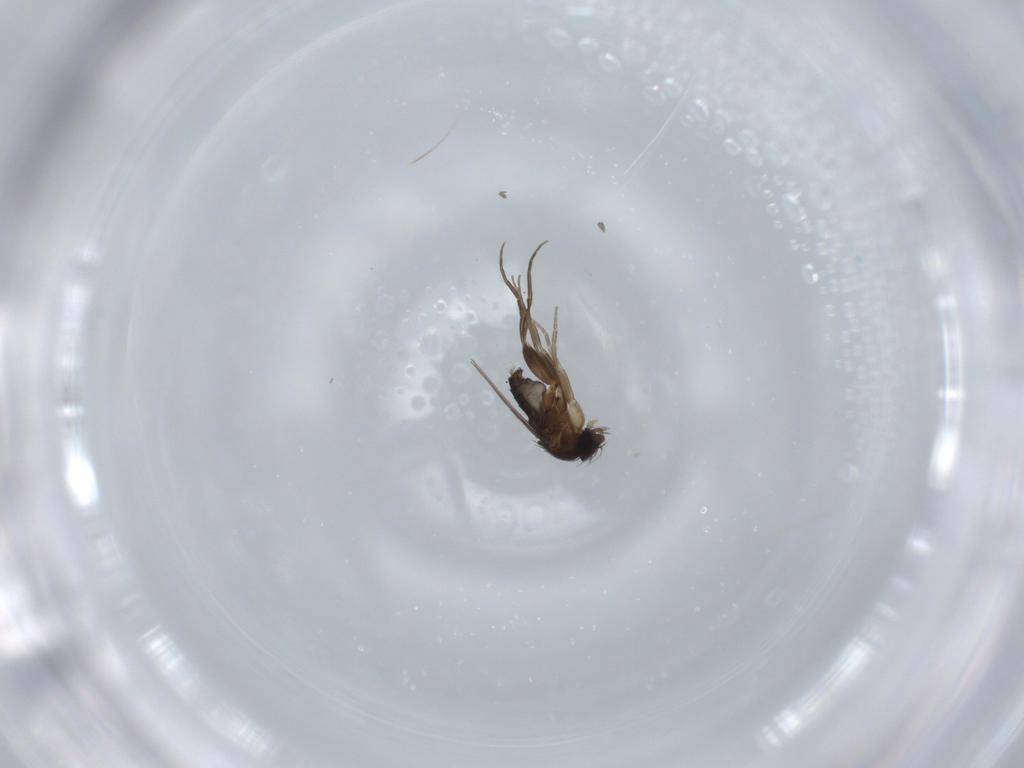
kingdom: Animalia
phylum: Arthropoda
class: Insecta
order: Diptera
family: Phoridae
